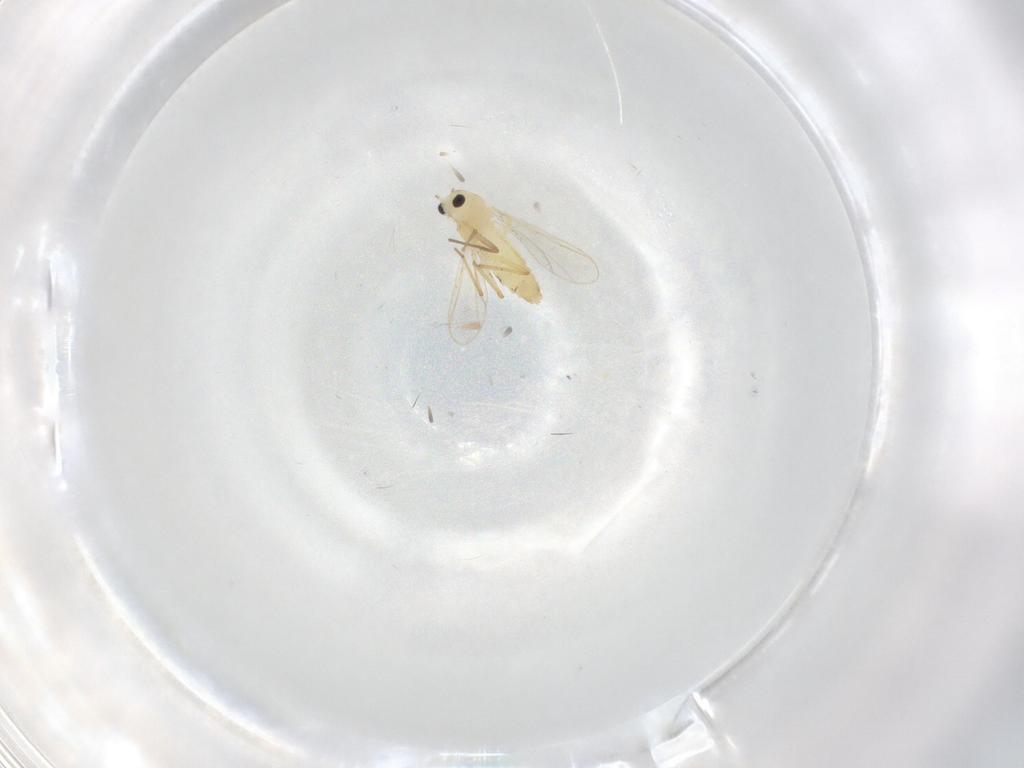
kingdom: Animalia
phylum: Arthropoda
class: Insecta
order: Diptera
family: Chironomidae
